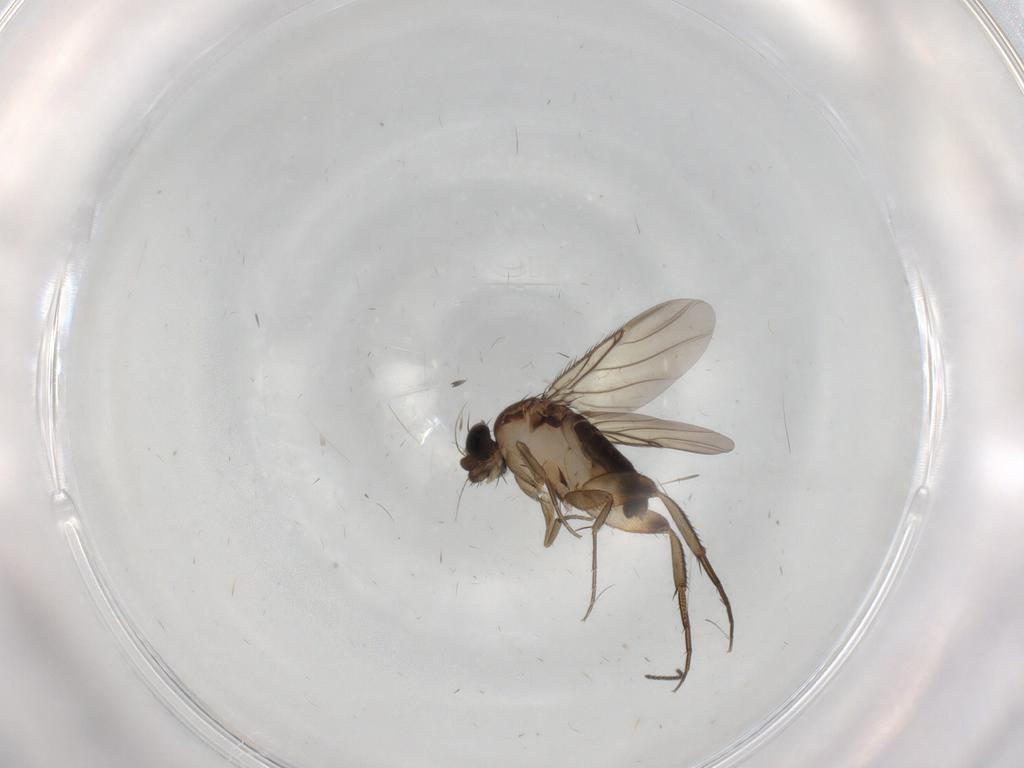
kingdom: Animalia
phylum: Arthropoda
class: Insecta
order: Diptera
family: Phoridae
